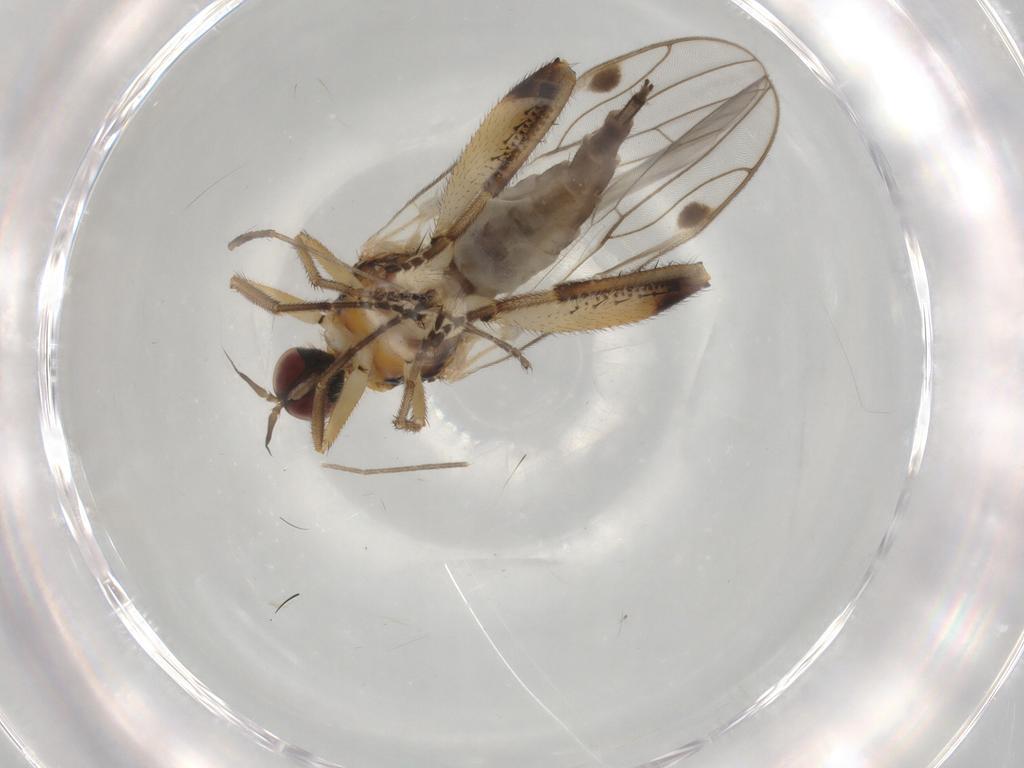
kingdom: Animalia
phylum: Arthropoda
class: Insecta
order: Diptera
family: Hybotidae
